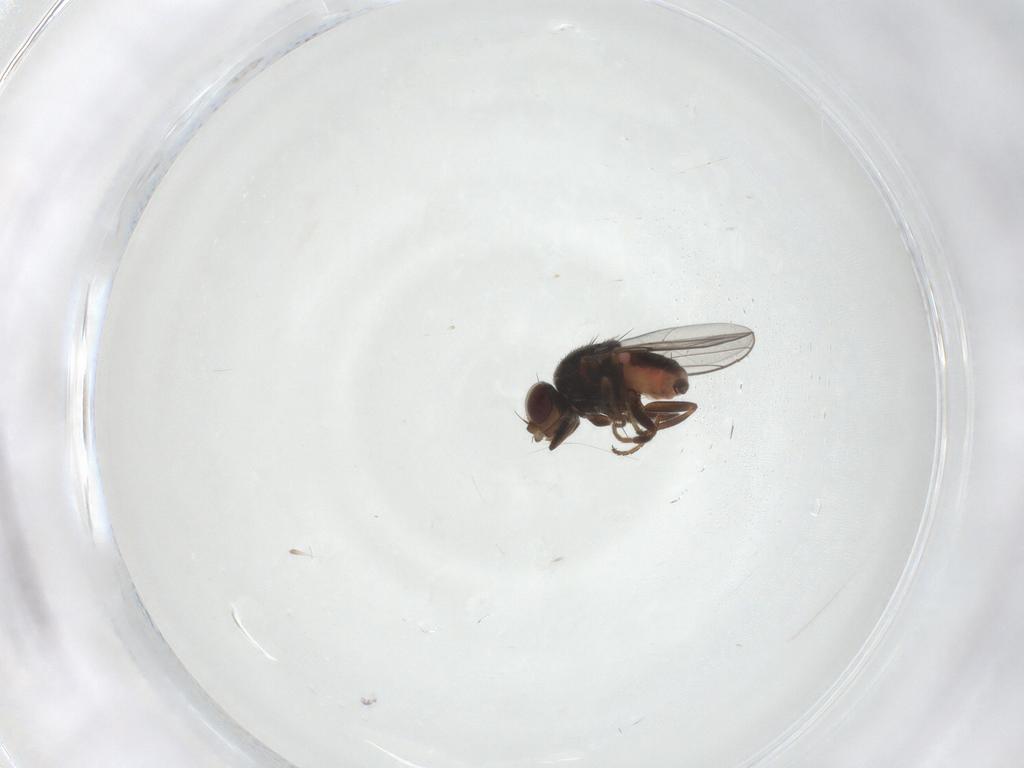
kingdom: Animalia
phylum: Arthropoda
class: Insecta
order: Diptera
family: Chloropidae
